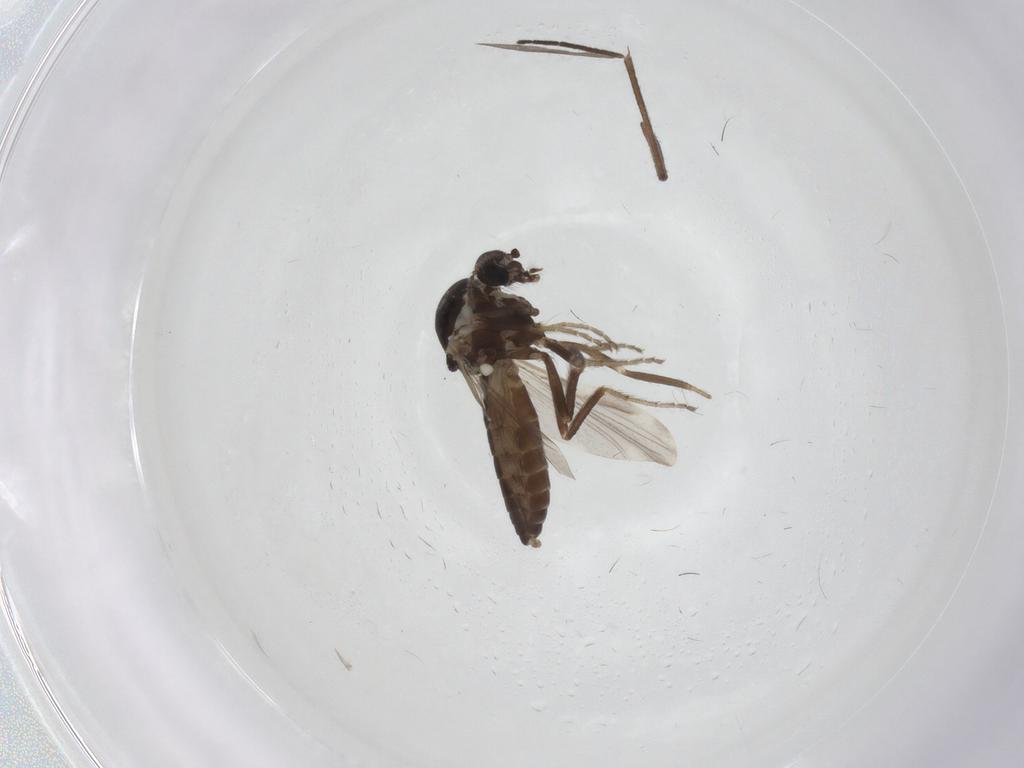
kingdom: Animalia
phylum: Arthropoda
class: Insecta
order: Diptera
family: Ceratopogonidae
